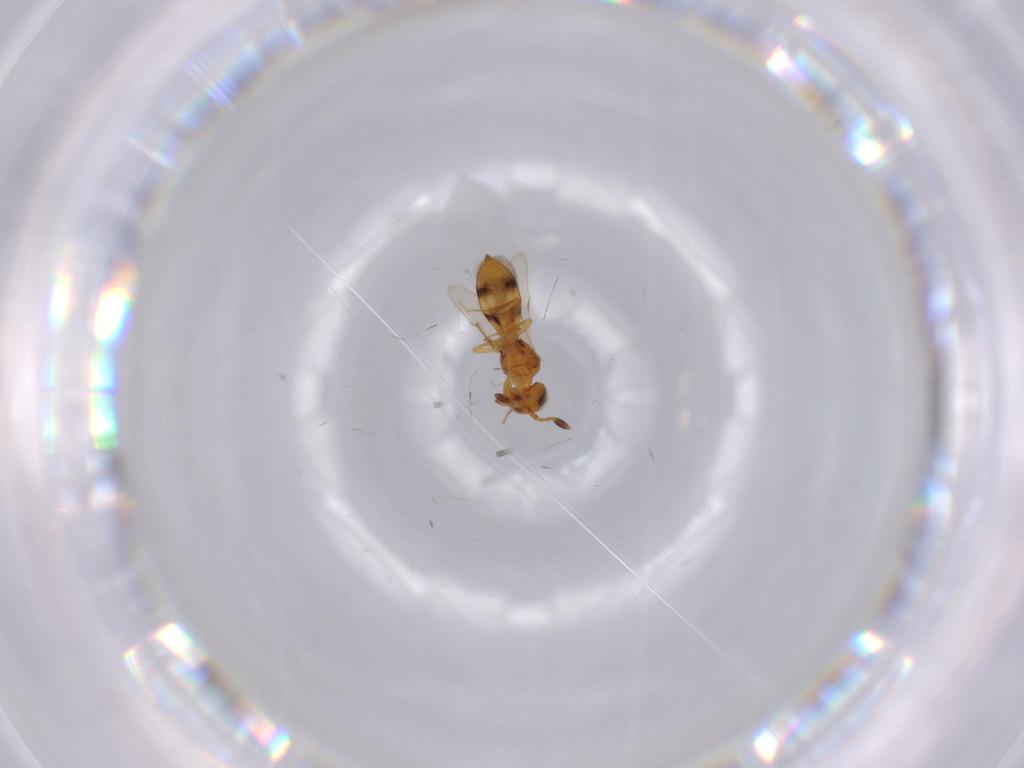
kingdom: Animalia
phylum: Arthropoda
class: Insecta
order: Hymenoptera
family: Scelionidae
